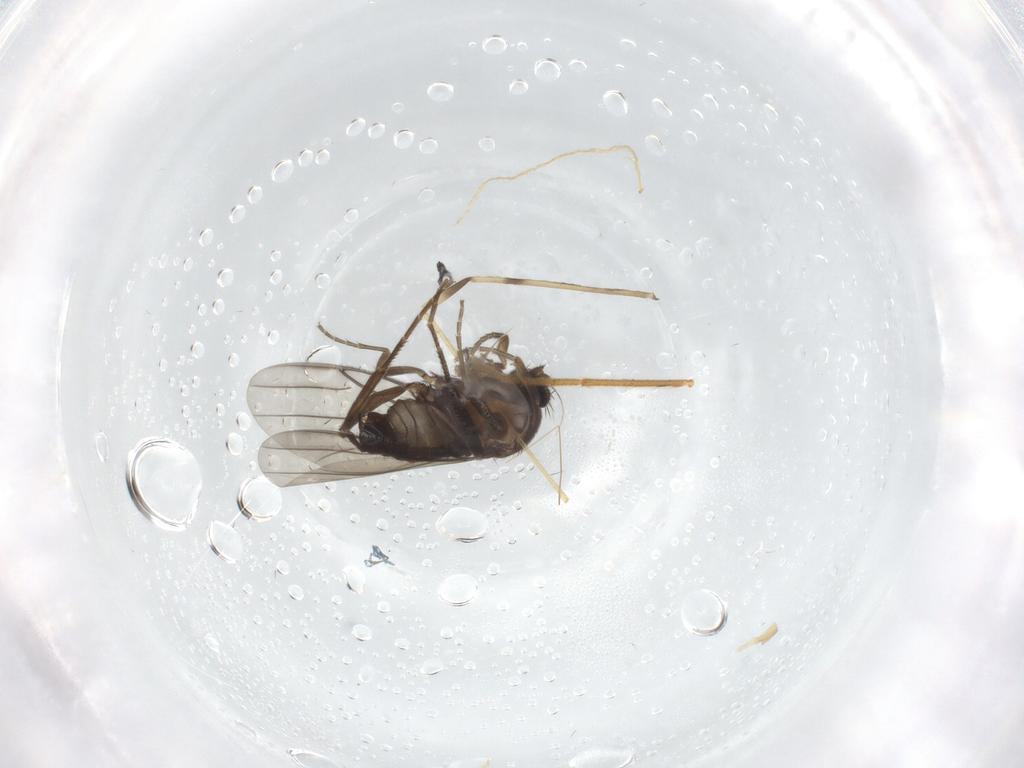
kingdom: Animalia
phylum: Arthropoda
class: Insecta
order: Diptera
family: Limoniidae
